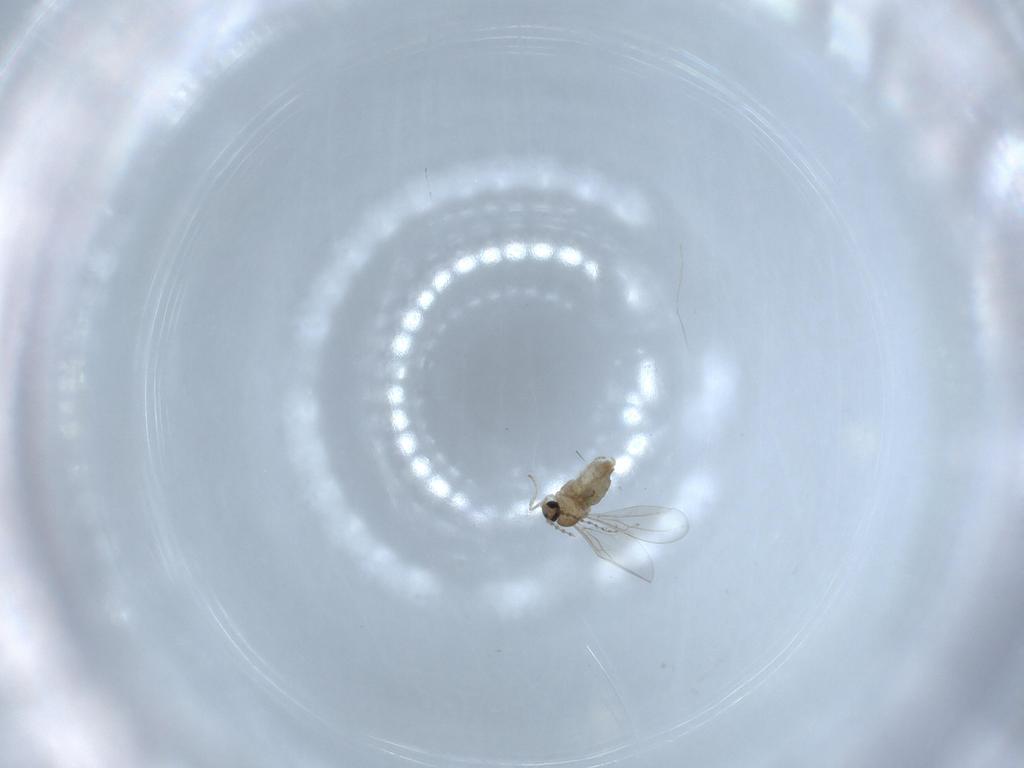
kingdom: Animalia
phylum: Arthropoda
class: Insecta
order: Diptera
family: Cecidomyiidae
